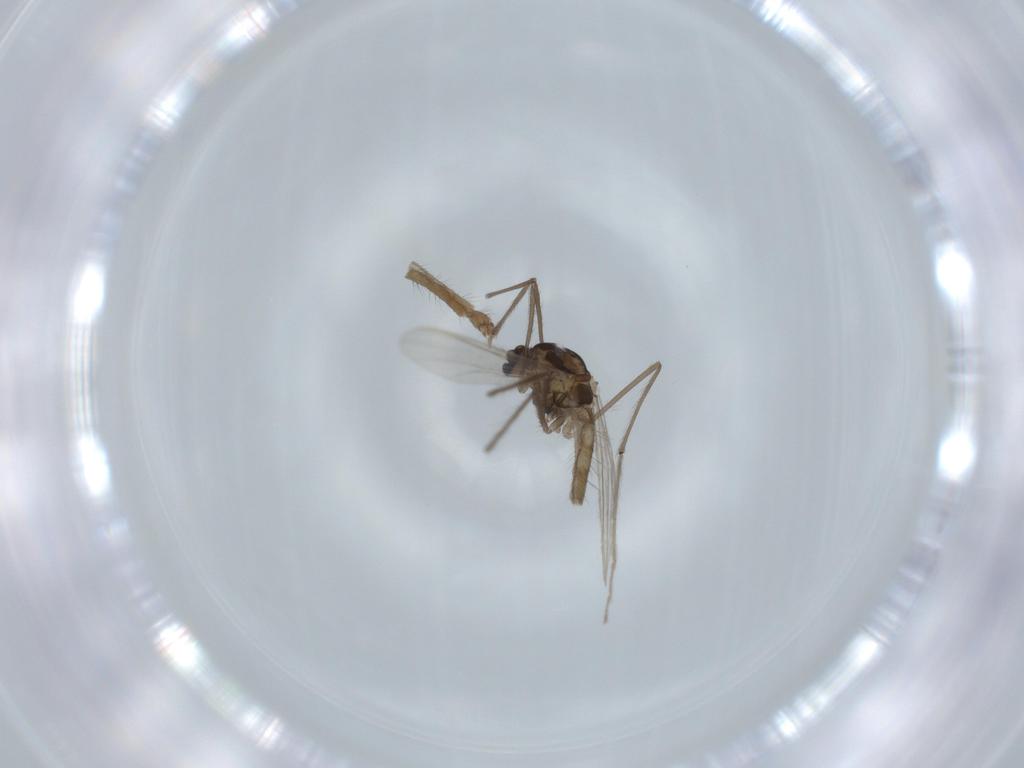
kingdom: Animalia
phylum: Arthropoda
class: Insecta
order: Diptera
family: Chironomidae
